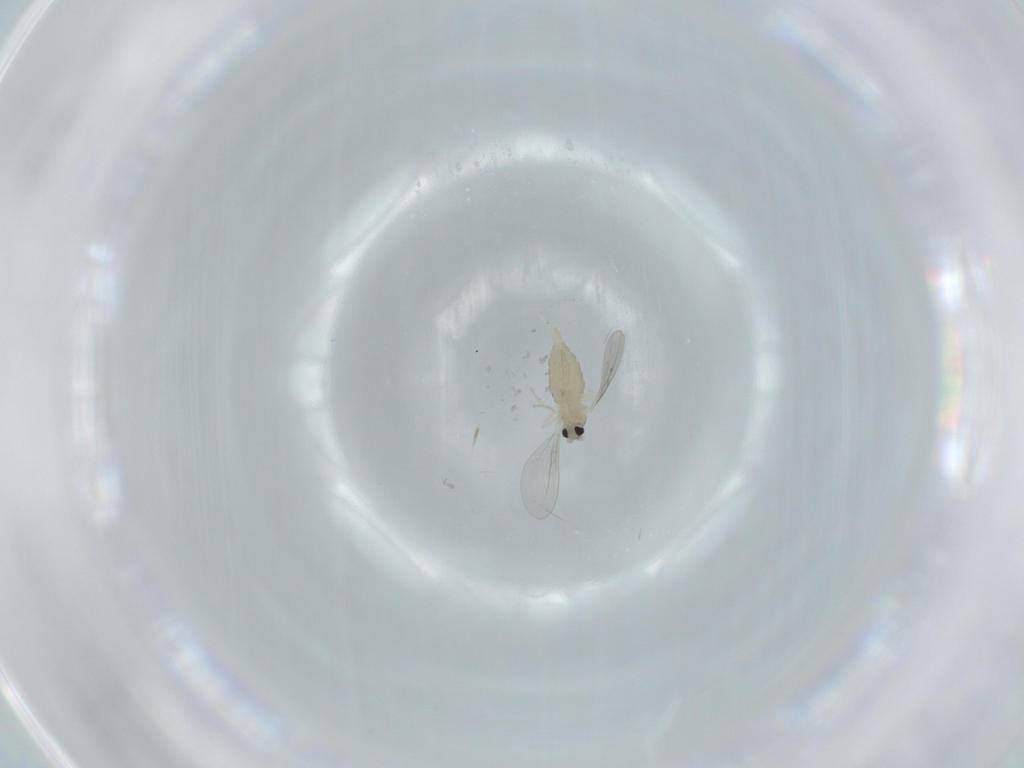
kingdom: Animalia
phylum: Arthropoda
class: Insecta
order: Diptera
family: Cecidomyiidae
